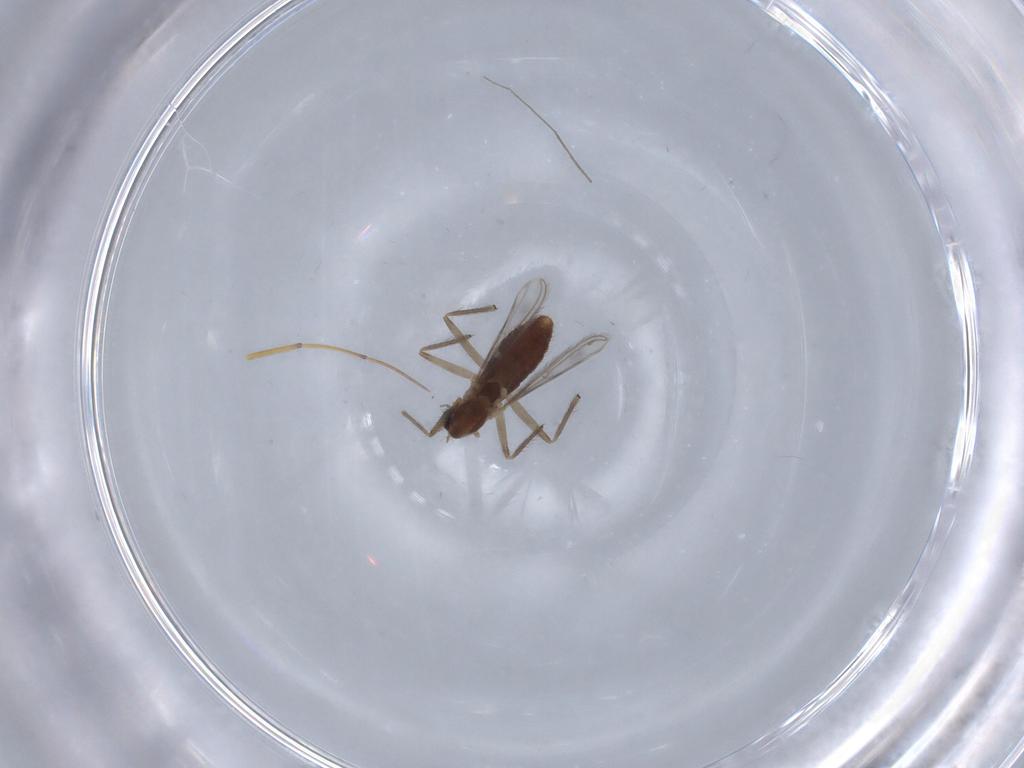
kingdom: Animalia
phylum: Arthropoda
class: Insecta
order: Diptera
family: Chironomidae
